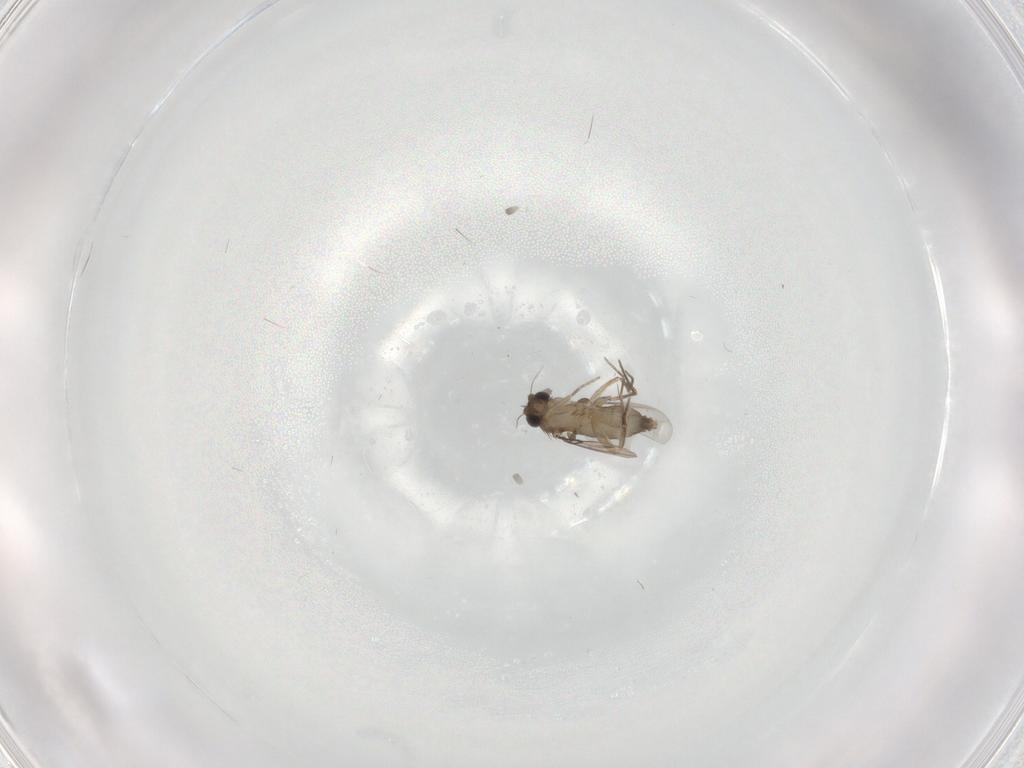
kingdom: Animalia
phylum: Arthropoda
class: Insecta
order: Diptera
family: Phoridae
